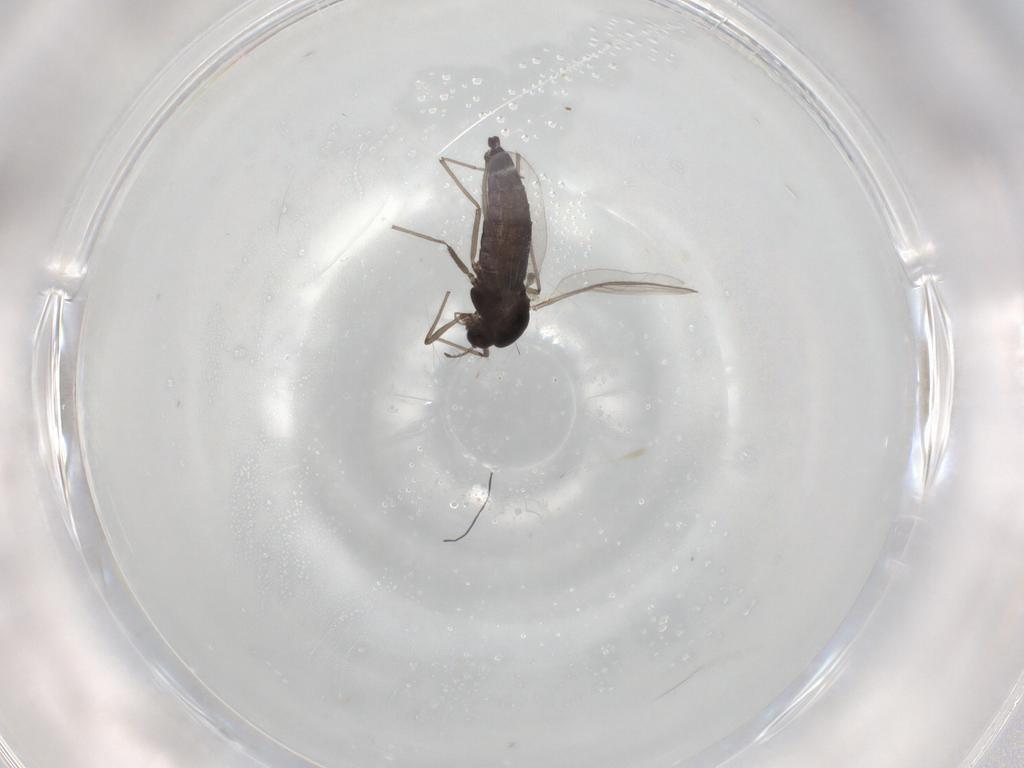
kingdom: Animalia
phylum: Arthropoda
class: Insecta
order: Diptera
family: Chironomidae
